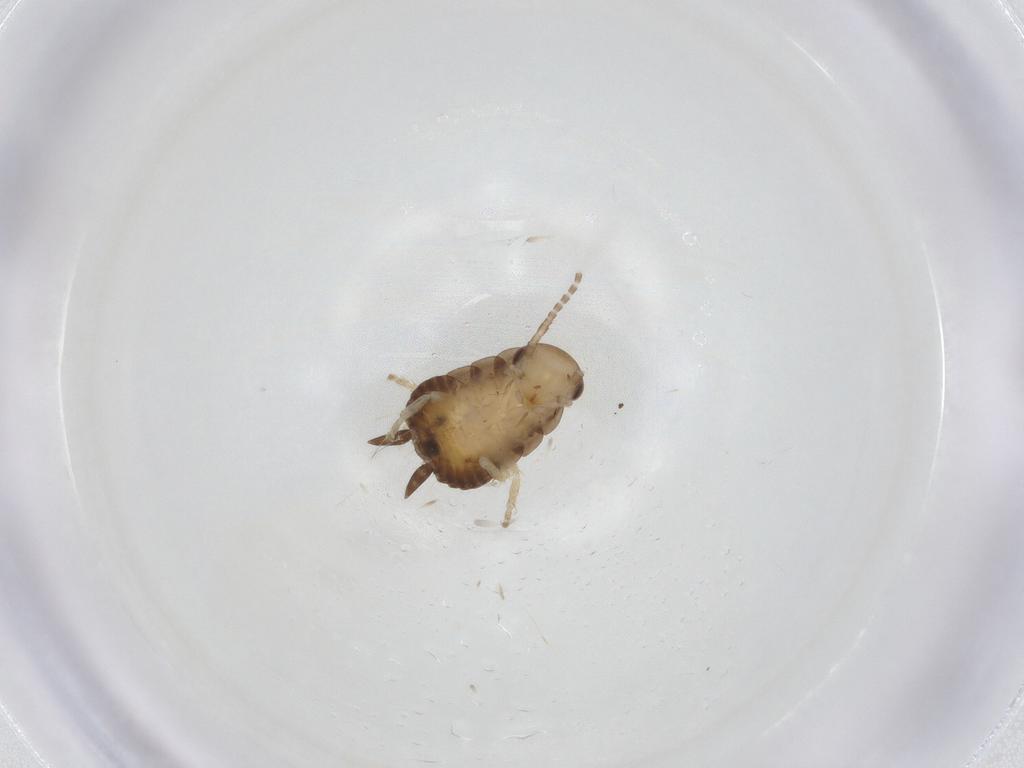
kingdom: Animalia
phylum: Arthropoda
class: Insecta
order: Blattodea
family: Ectobiidae
